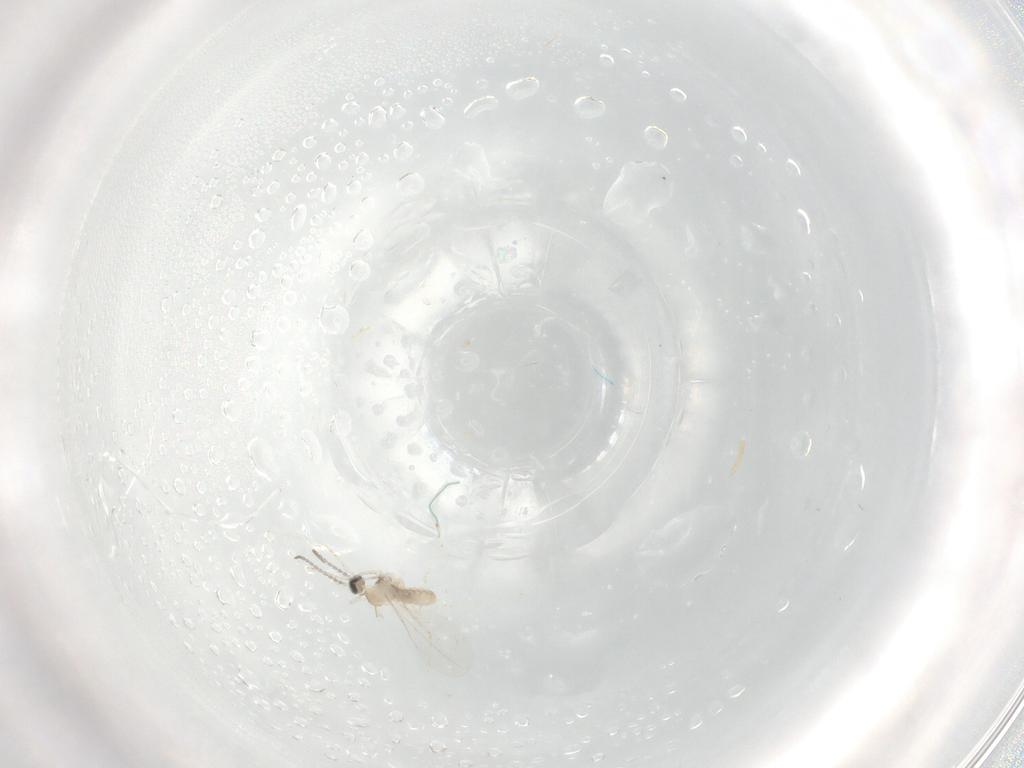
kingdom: Animalia
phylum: Arthropoda
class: Insecta
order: Diptera
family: Cecidomyiidae
